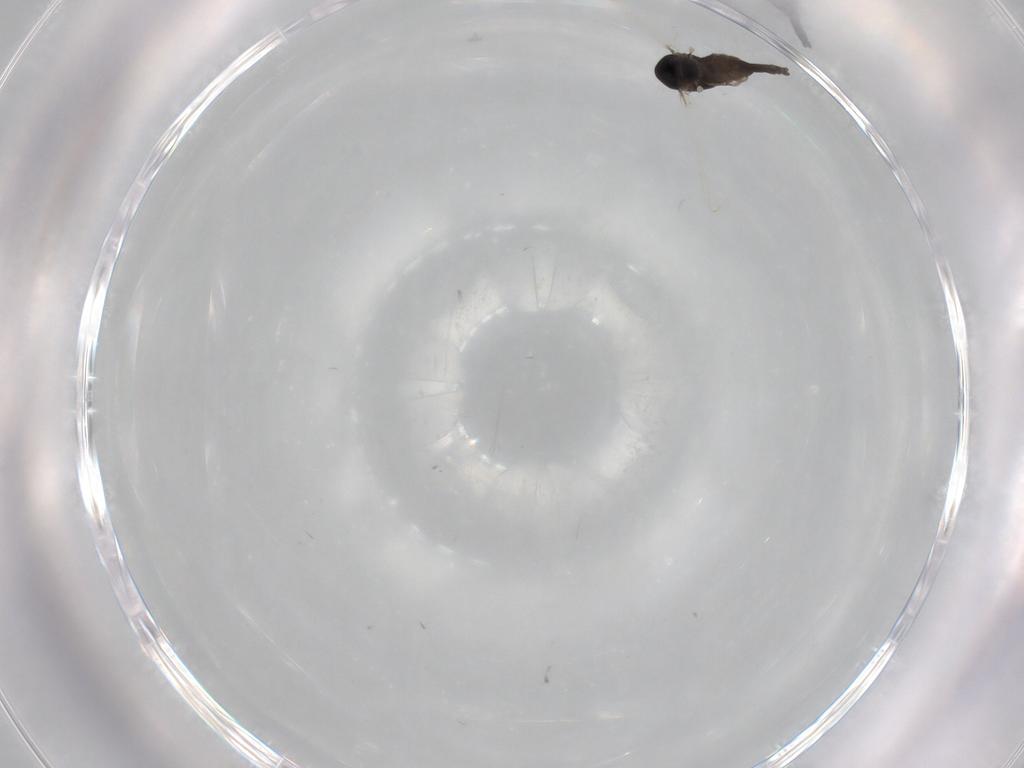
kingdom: Animalia
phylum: Arthropoda
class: Insecta
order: Diptera
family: Chironomidae
